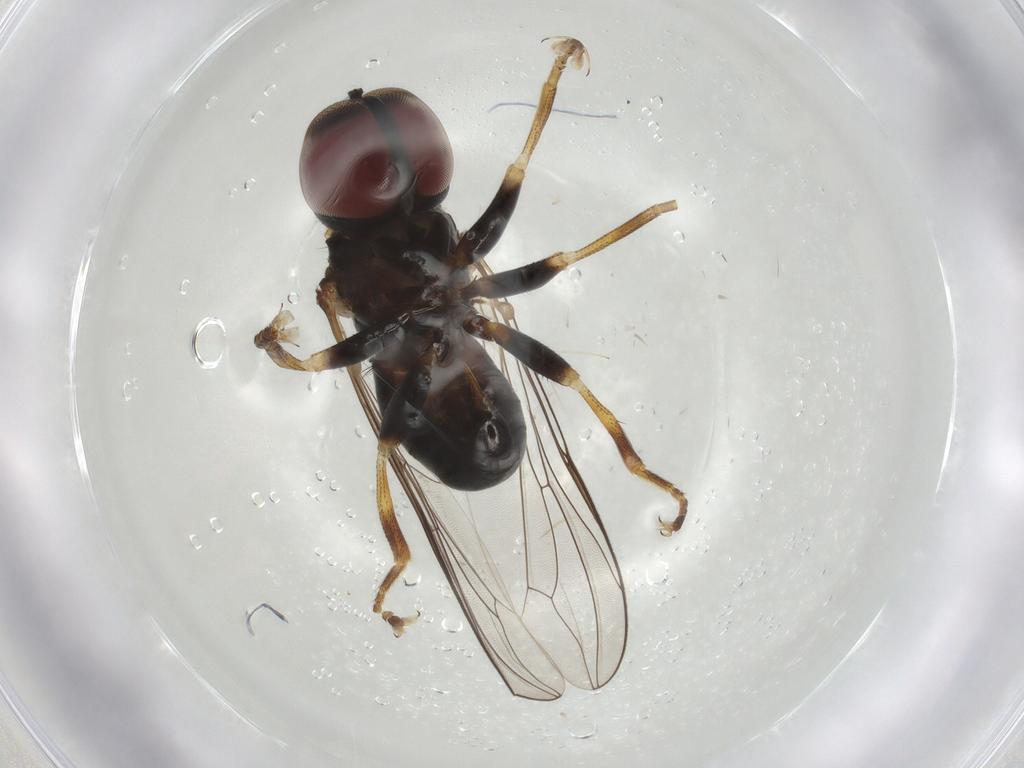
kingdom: Animalia
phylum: Arthropoda
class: Insecta
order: Diptera
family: Pipunculidae
